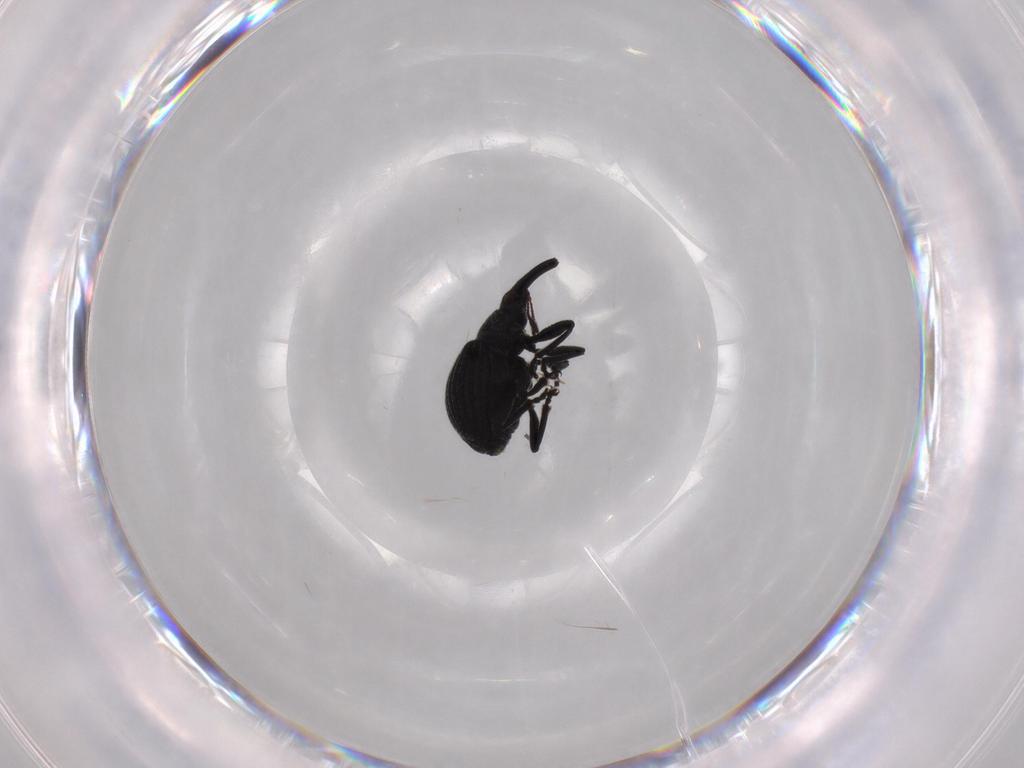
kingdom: Animalia
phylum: Arthropoda
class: Insecta
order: Coleoptera
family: Brentidae
